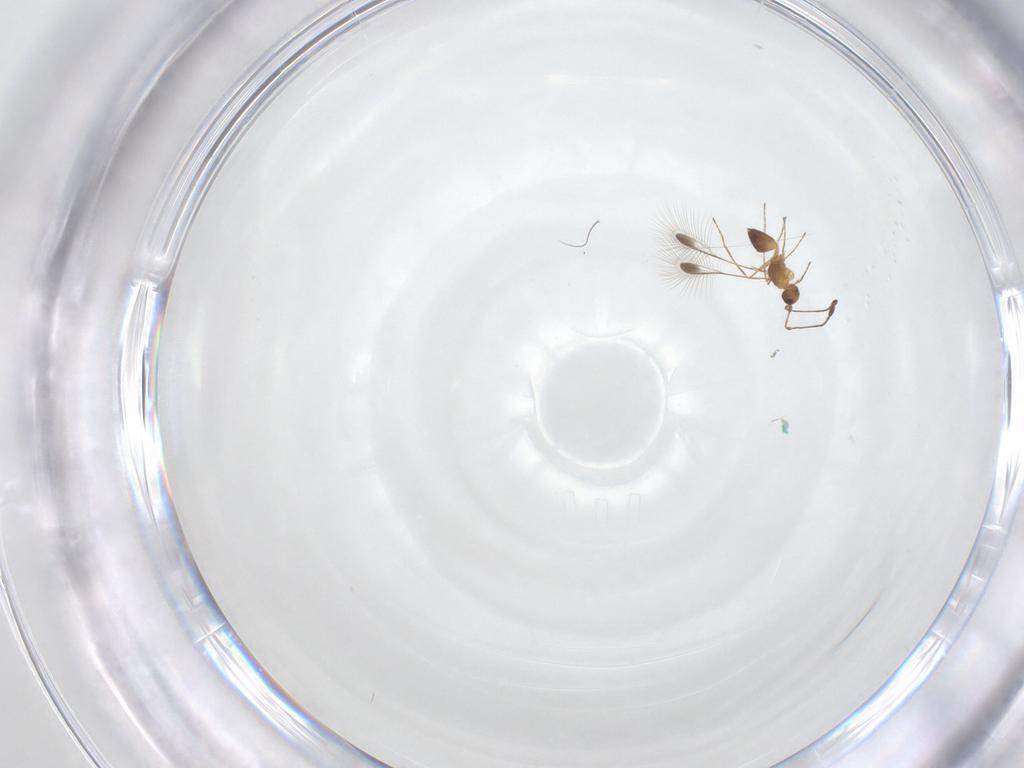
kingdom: Animalia
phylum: Arthropoda
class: Insecta
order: Hymenoptera
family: Mymaridae
